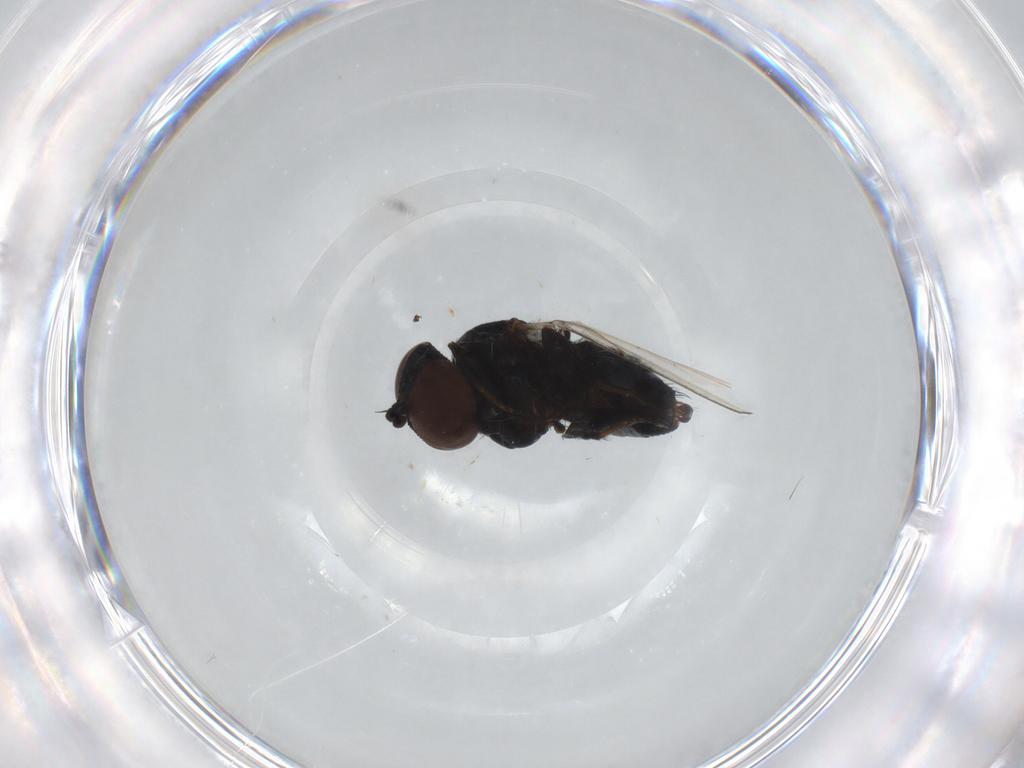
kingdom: Animalia
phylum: Arthropoda
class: Insecta
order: Diptera
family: Milichiidae
